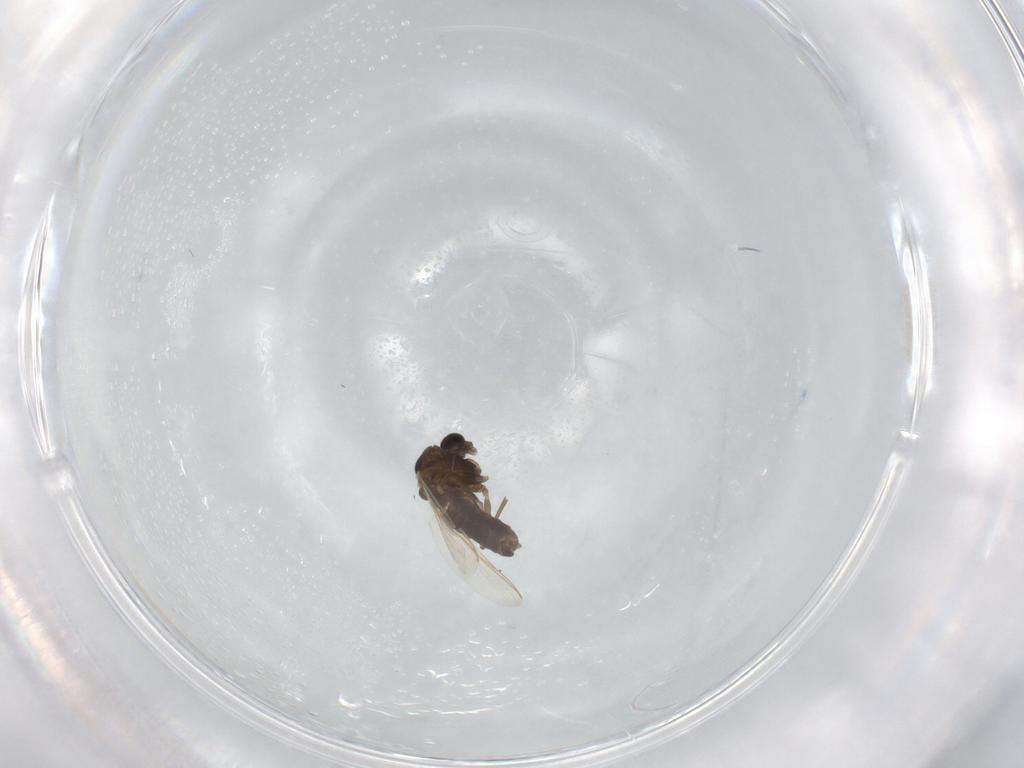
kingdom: Animalia
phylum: Arthropoda
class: Insecta
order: Diptera
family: Chironomidae
